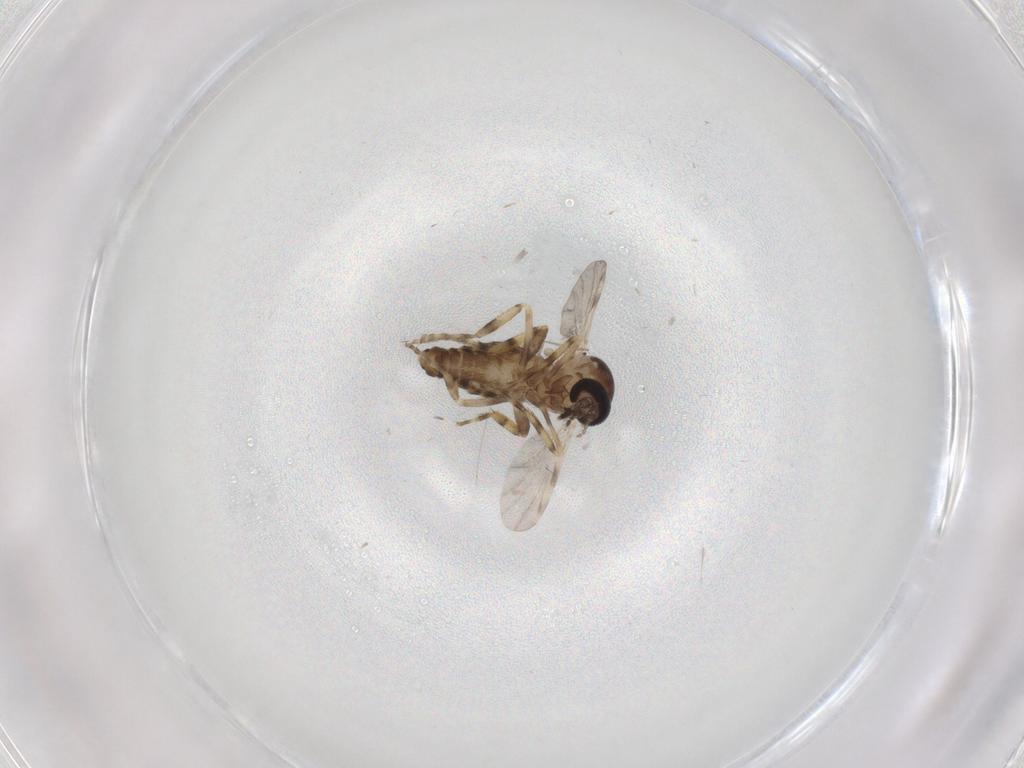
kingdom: Animalia
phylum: Arthropoda
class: Insecta
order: Diptera
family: Ceratopogonidae
